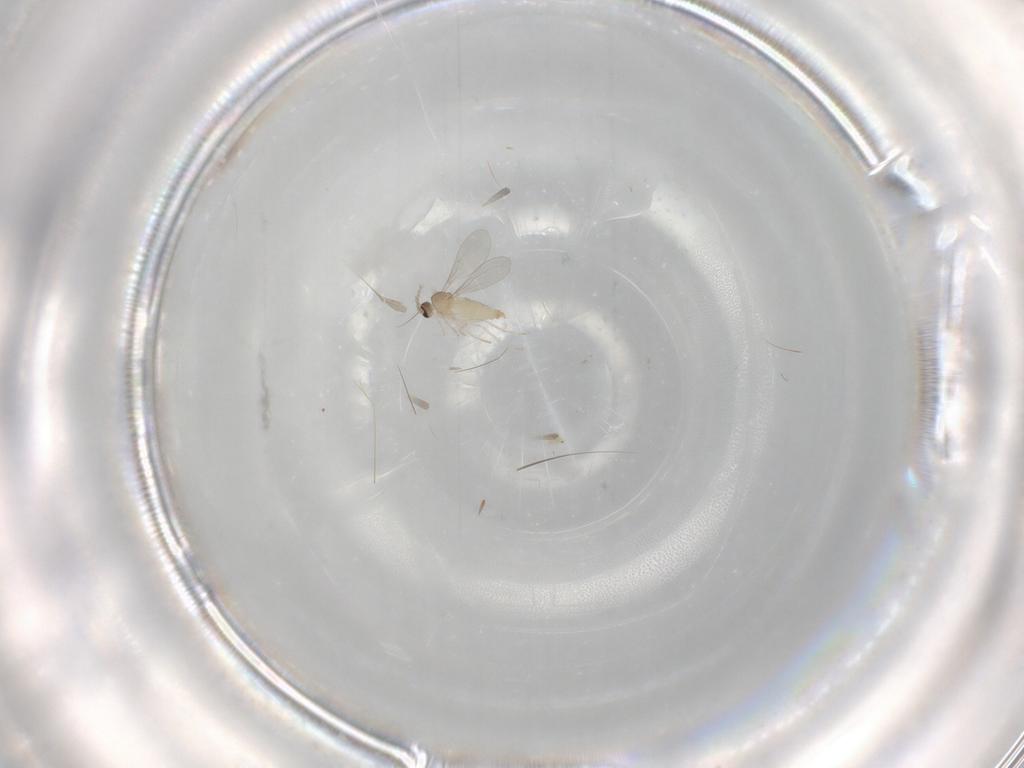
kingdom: Animalia
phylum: Arthropoda
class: Insecta
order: Diptera
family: Cecidomyiidae
